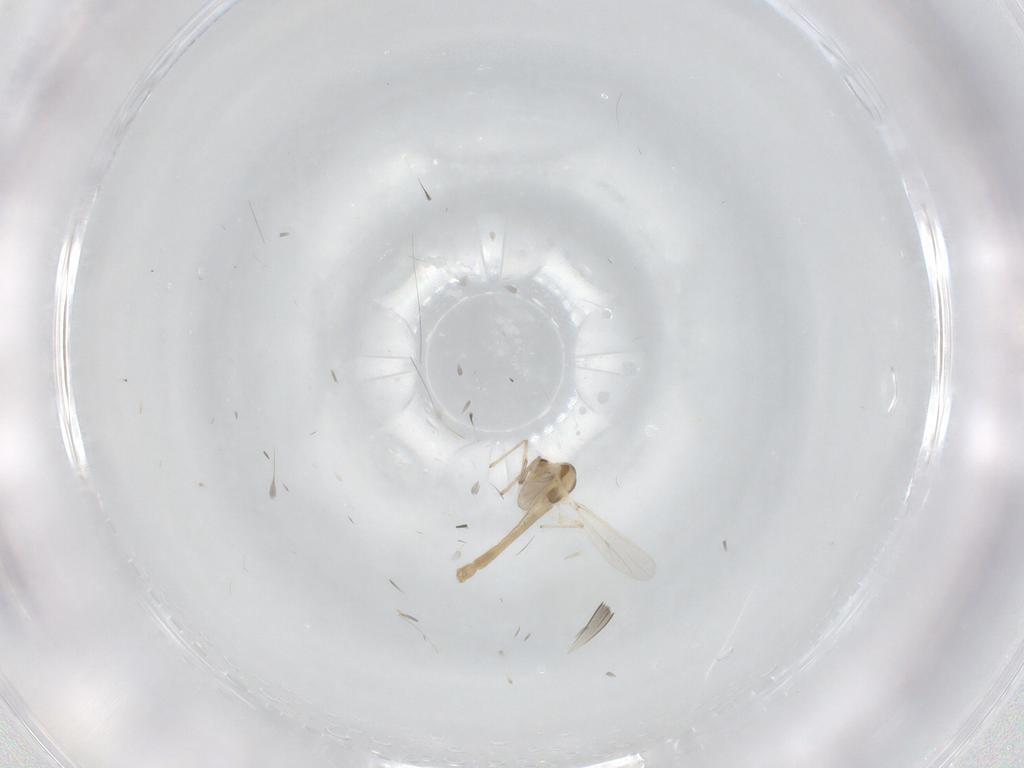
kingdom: Animalia
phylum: Arthropoda
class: Insecta
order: Diptera
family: Chironomidae
